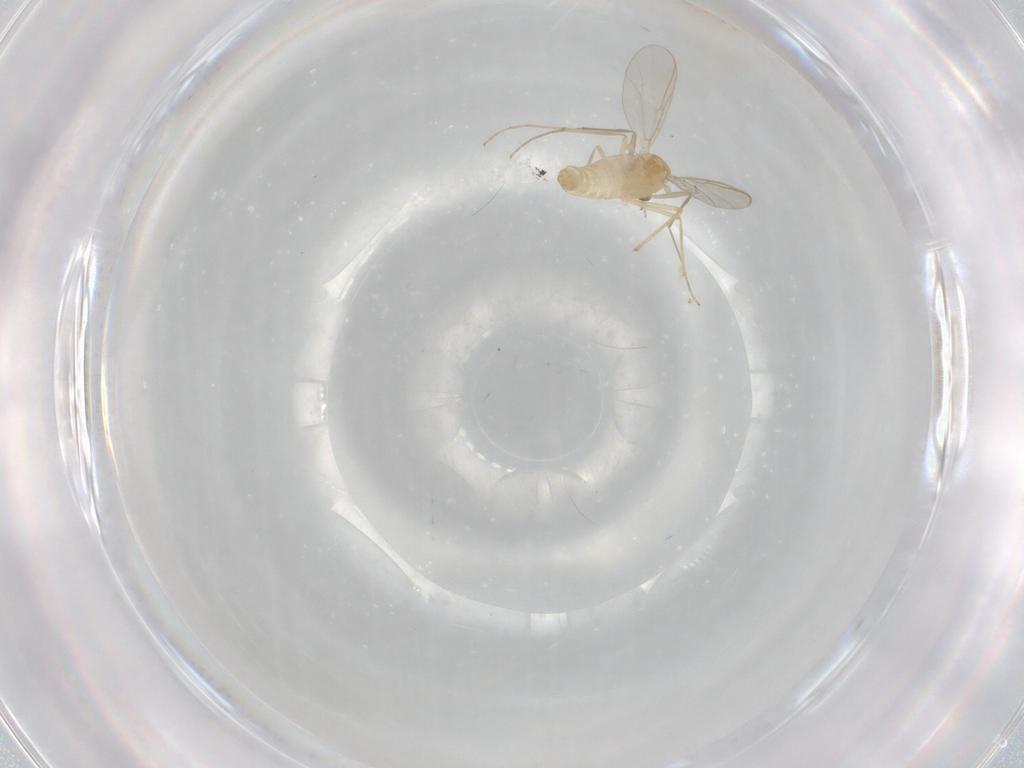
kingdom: Animalia
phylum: Arthropoda
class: Insecta
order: Diptera
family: Chironomidae
